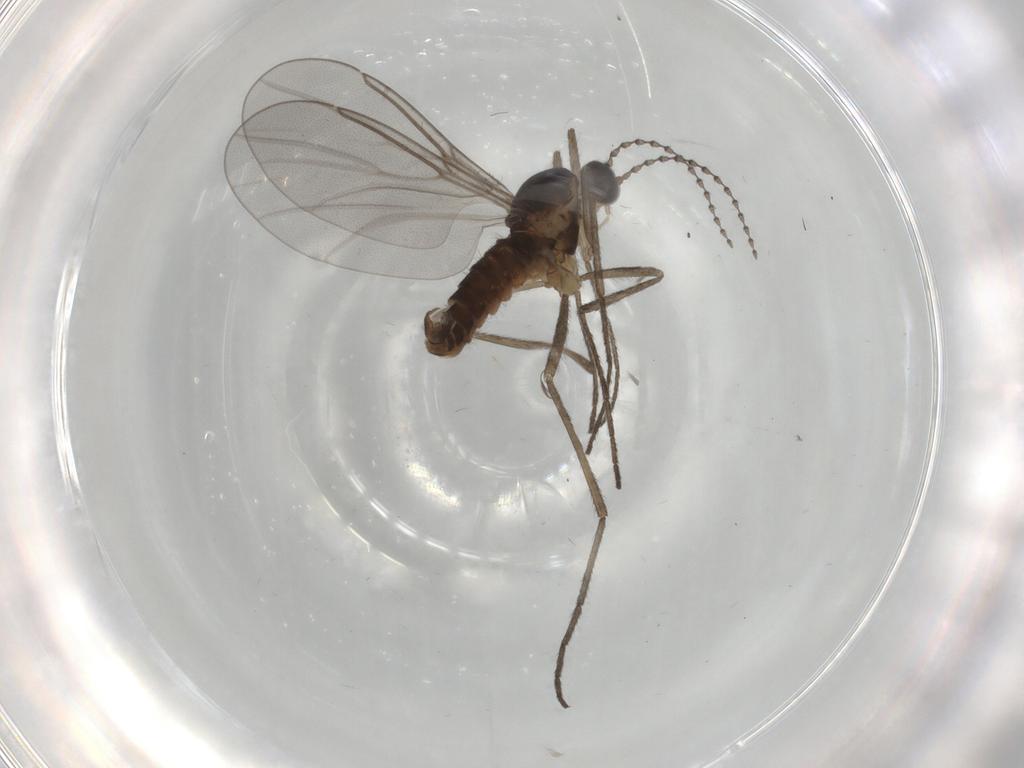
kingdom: Animalia
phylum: Arthropoda
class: Insecta
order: Diptera
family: Cecidomyiidae
